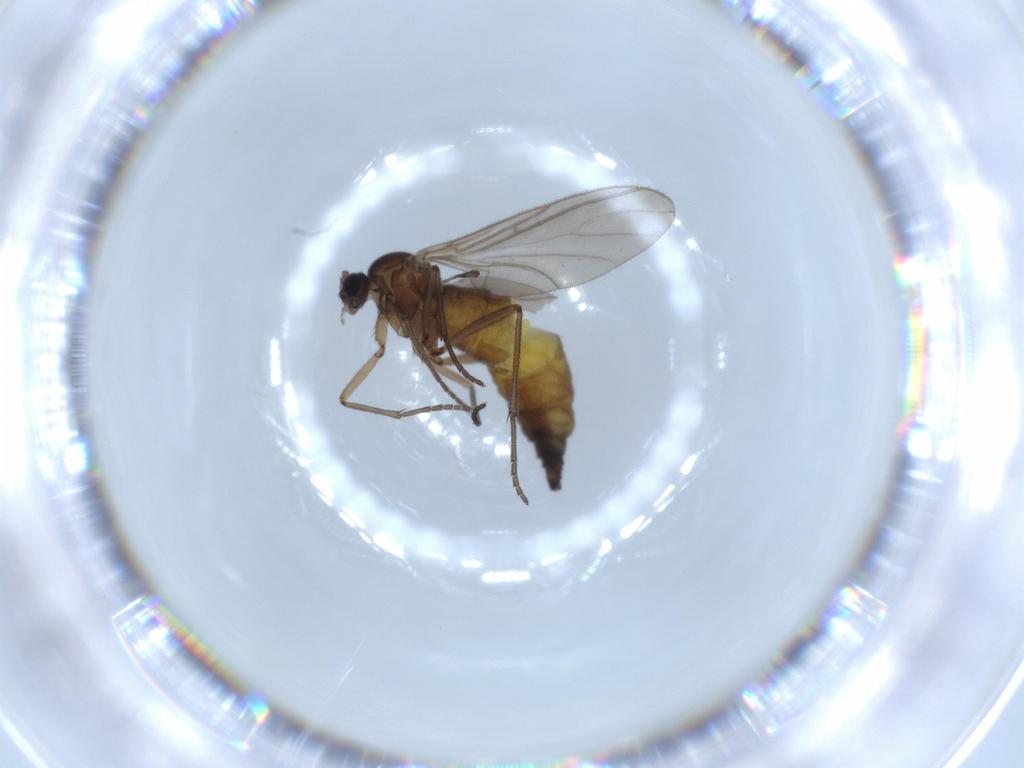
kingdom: Animalia
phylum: Arthropoda
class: Insecta
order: Diptera
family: Sciaridae
